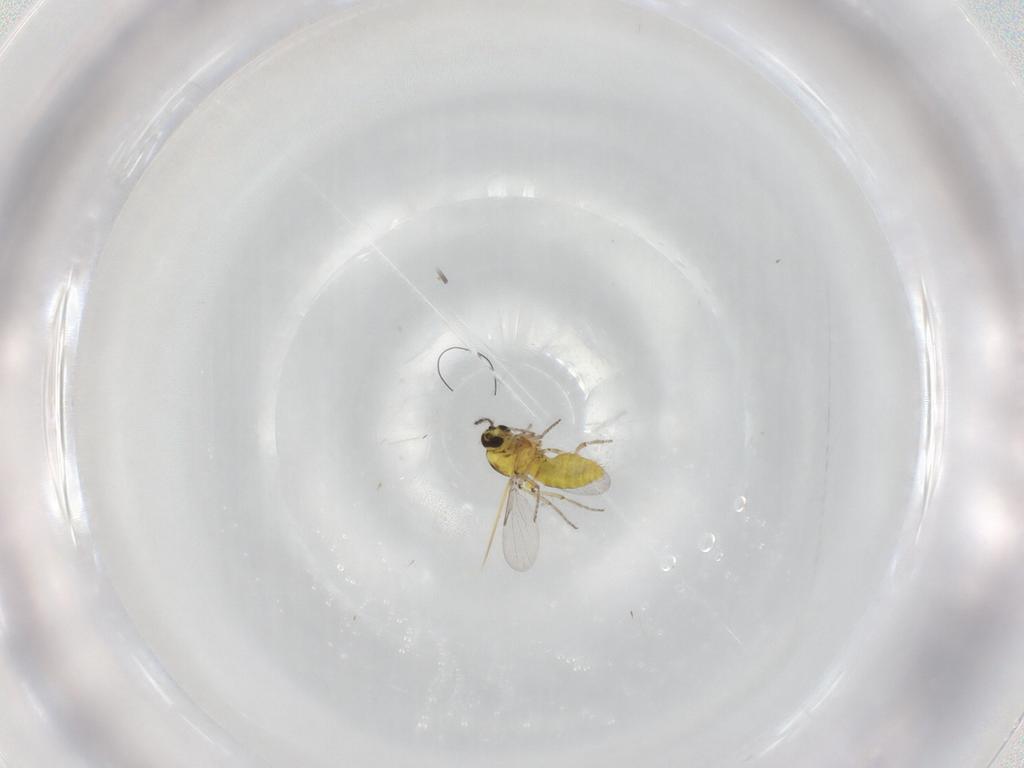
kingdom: Animalia
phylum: Arthropoda
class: Insecta
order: Diptera
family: Ceratopogonidae
